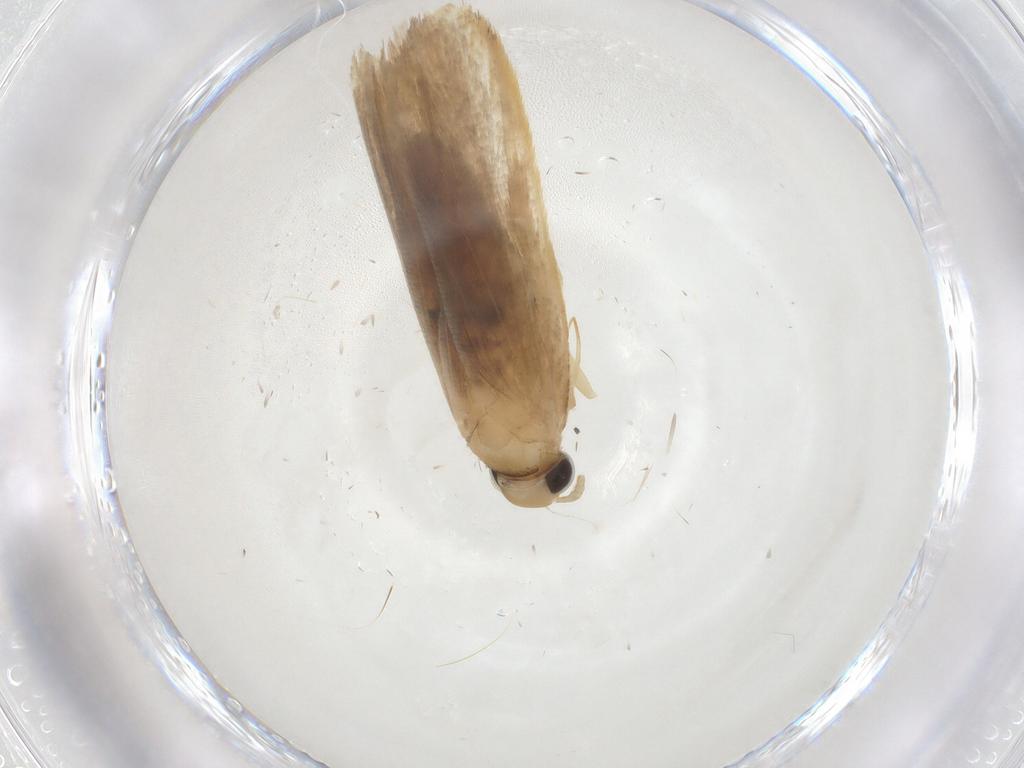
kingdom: Animalia
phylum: Arthropoda
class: Insecta
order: Lepidoptera
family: Gelechiidae
